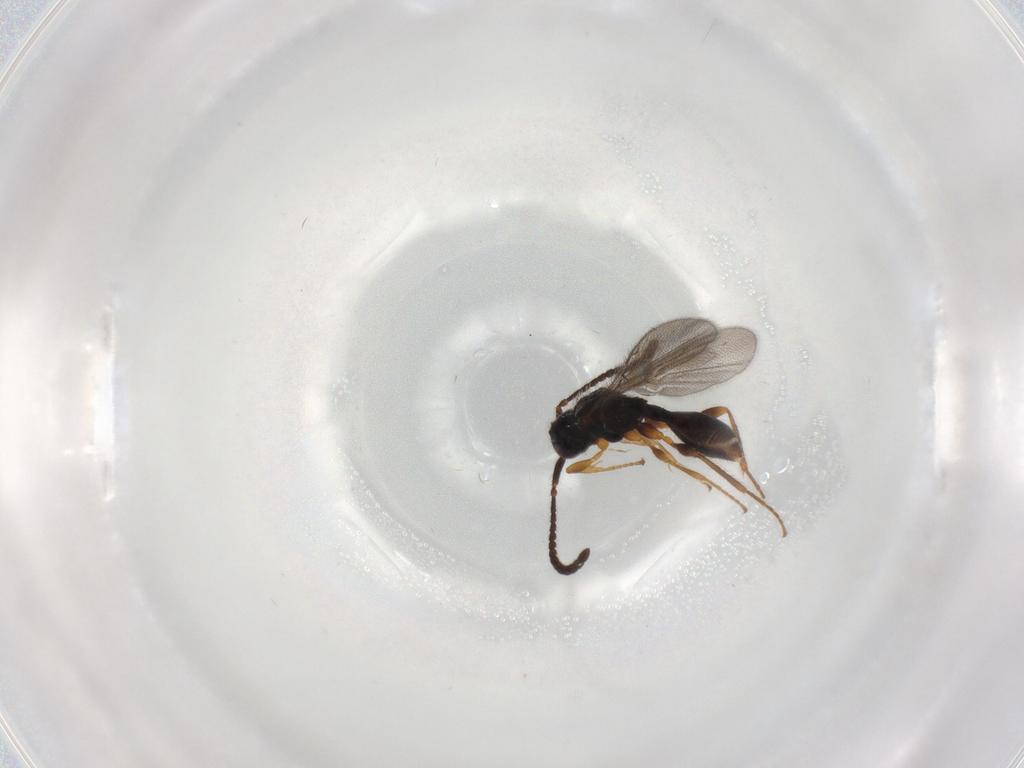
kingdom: Animalia
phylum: Arthropoda
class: Insecta
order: Hymenoptera
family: Diapriidae
